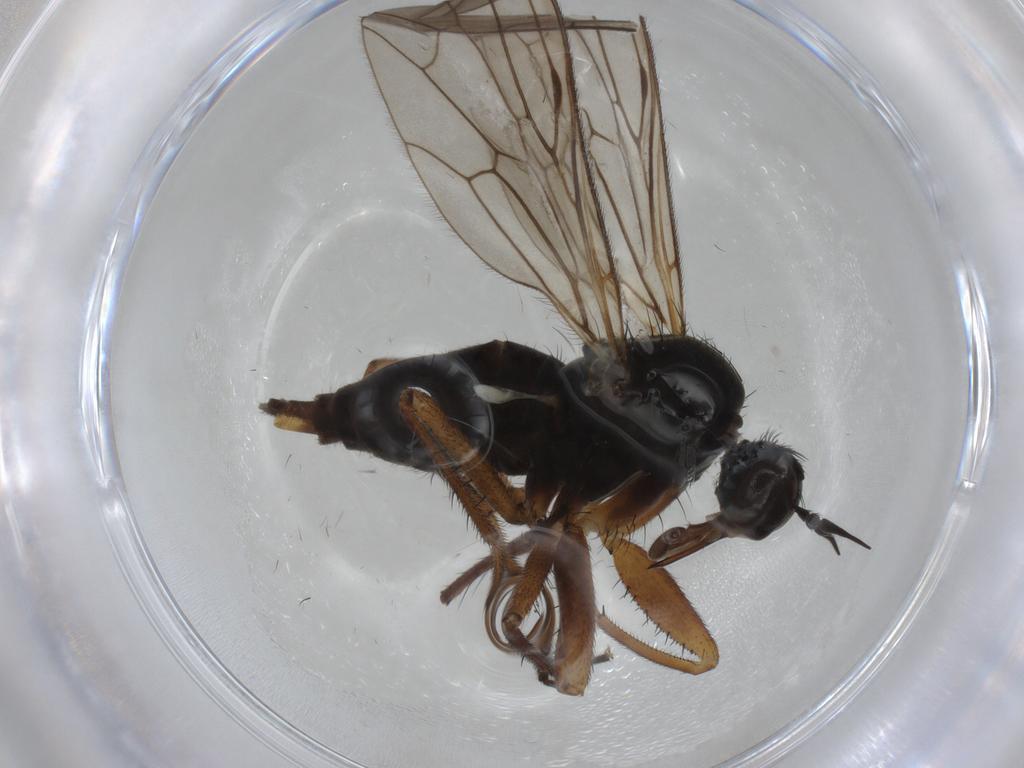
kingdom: Animalia
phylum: Arthropoda
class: Insecta
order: Diptera
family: Empididae
